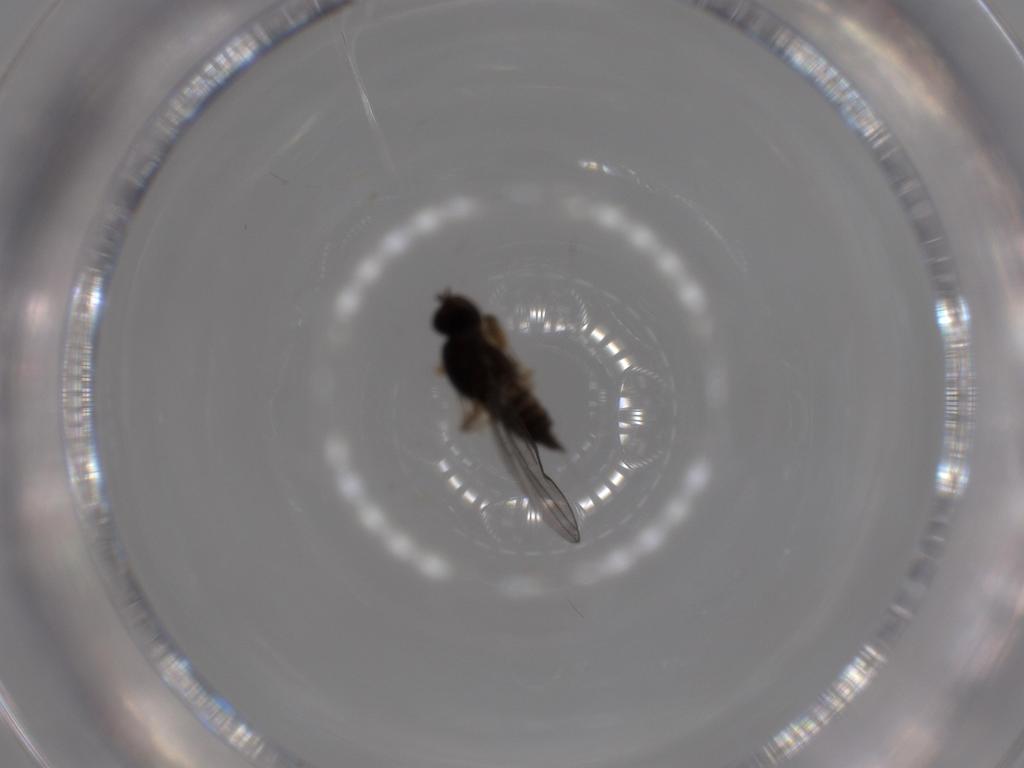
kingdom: Animalia
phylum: Arthropoda
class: Insecta
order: Diptera
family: Hybotidae
